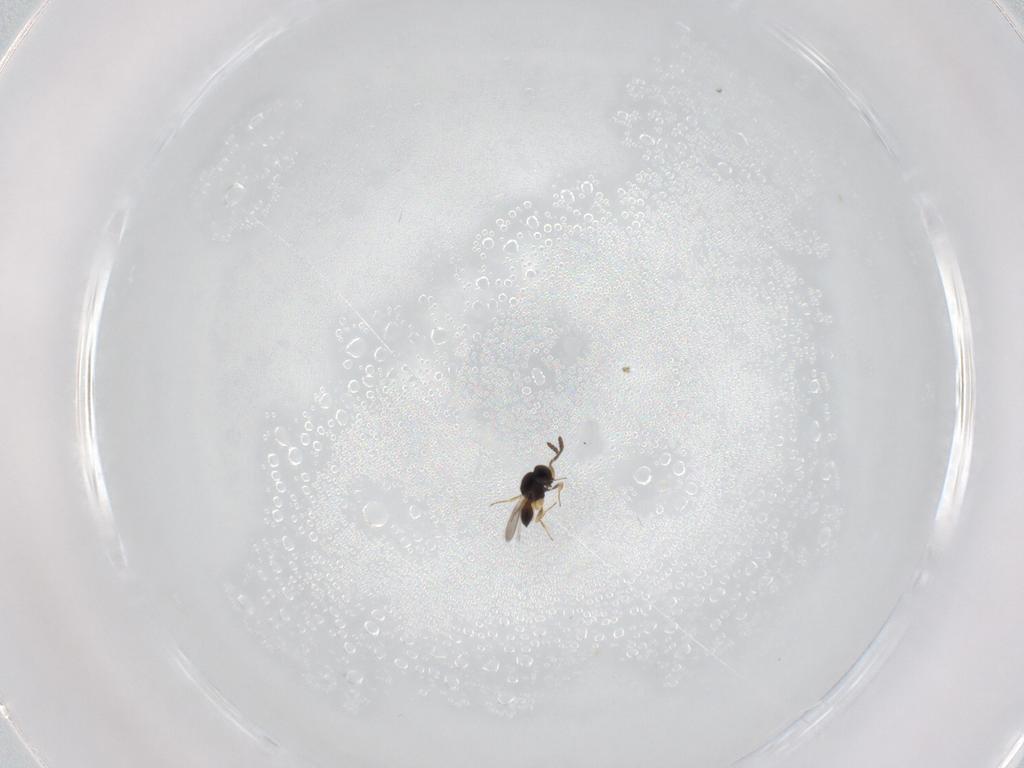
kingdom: Animalia
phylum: Arthropoda
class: Insecta
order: Hymenoptera
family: Scelionidae
